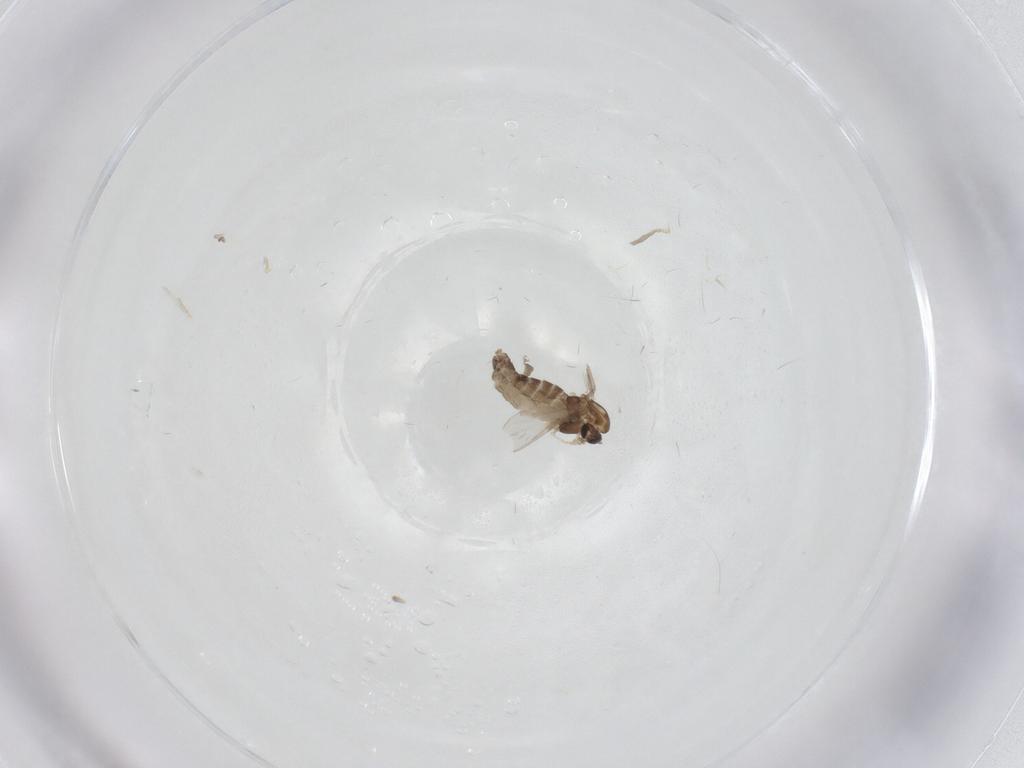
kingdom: Animalia
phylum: Arthropoda
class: Insecta
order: Diptera
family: Chironomidae
